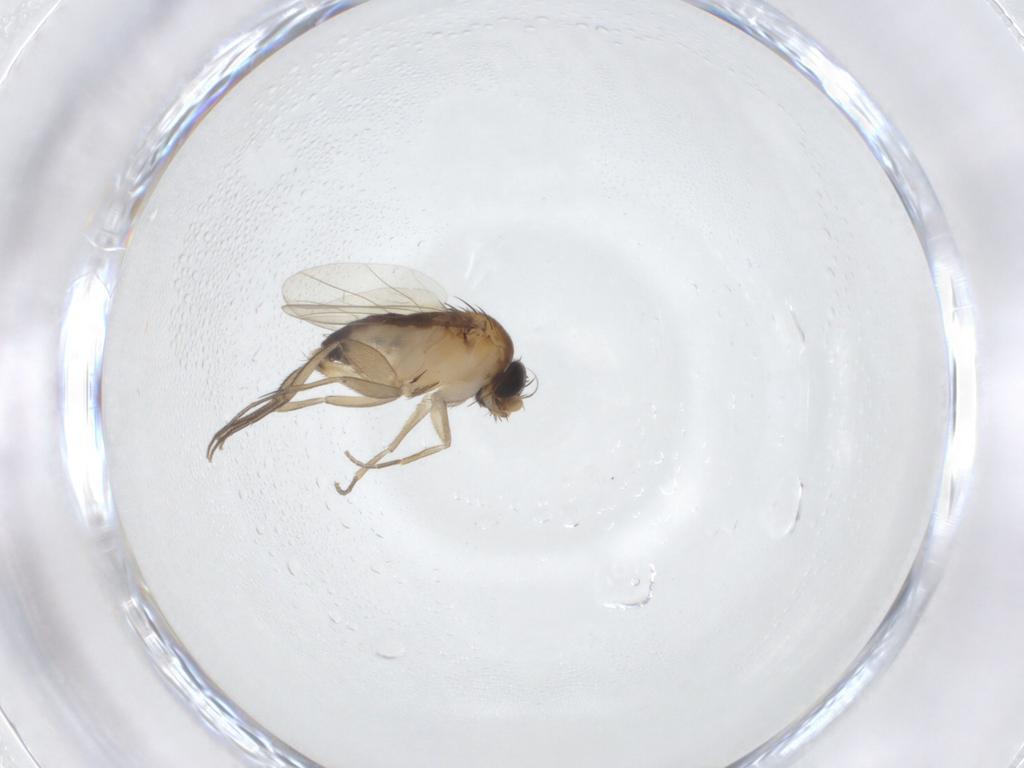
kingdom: Animalia
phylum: Arthropoda
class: Insecta
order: Diptera
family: Phoridae
